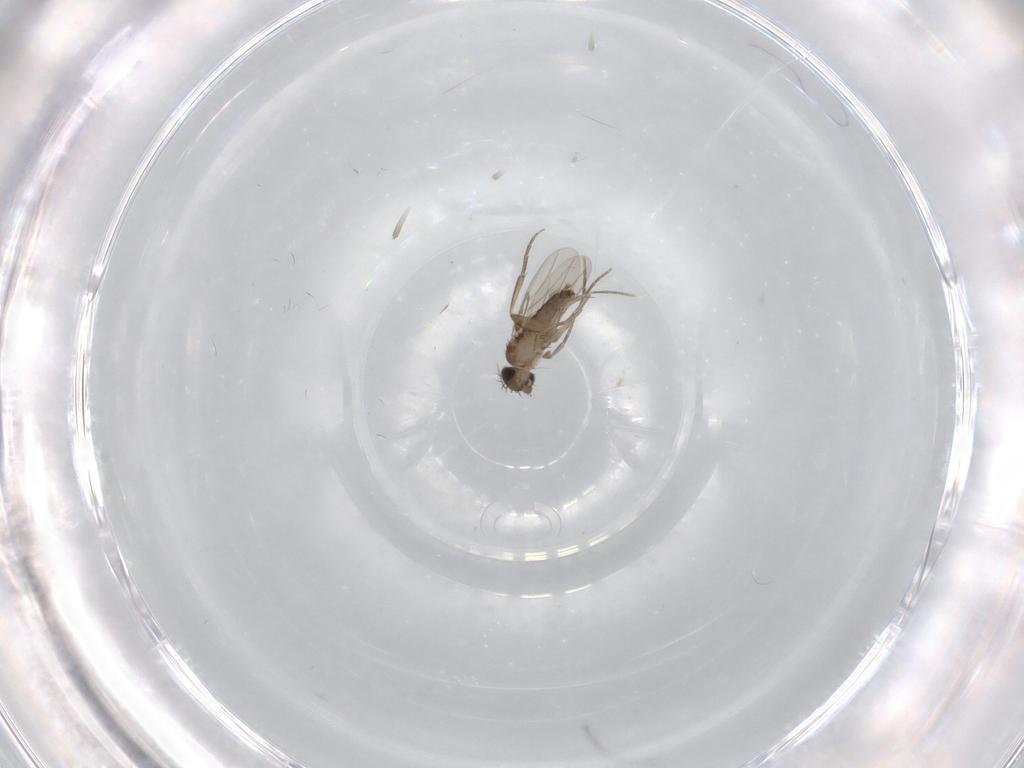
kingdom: Animalia
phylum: Arthropoda
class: Insecta
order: Diptera
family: Phoridae
